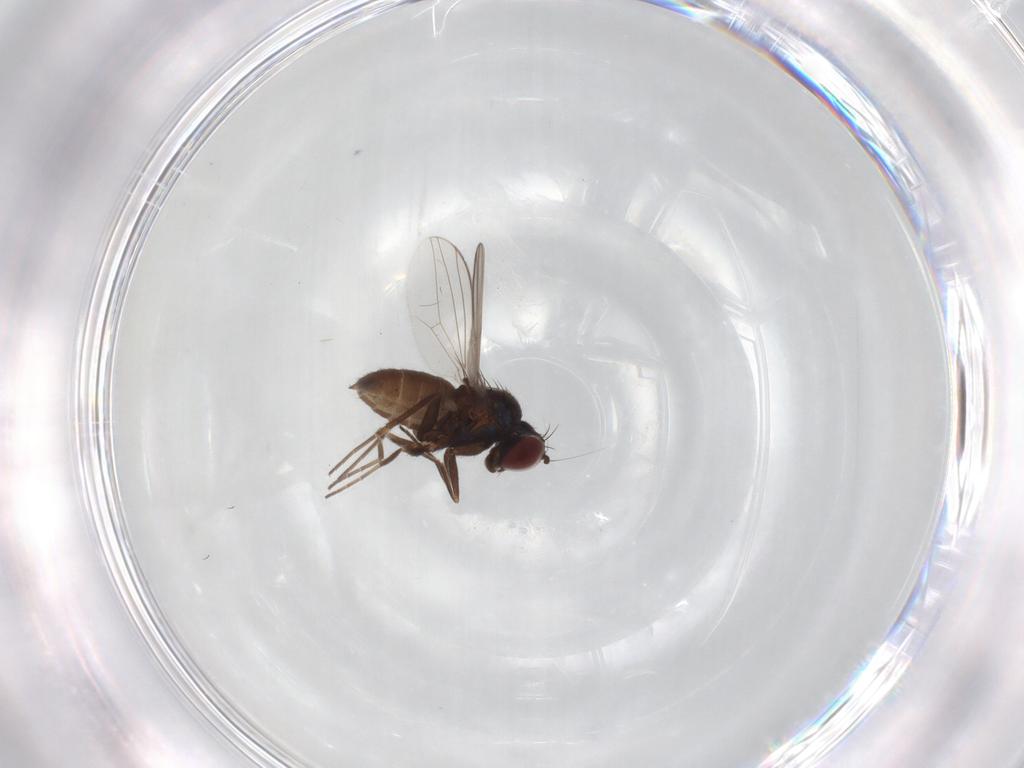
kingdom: Animalia
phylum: Arthropoda
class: Insecta
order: Diptera
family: Dolichopodidae
